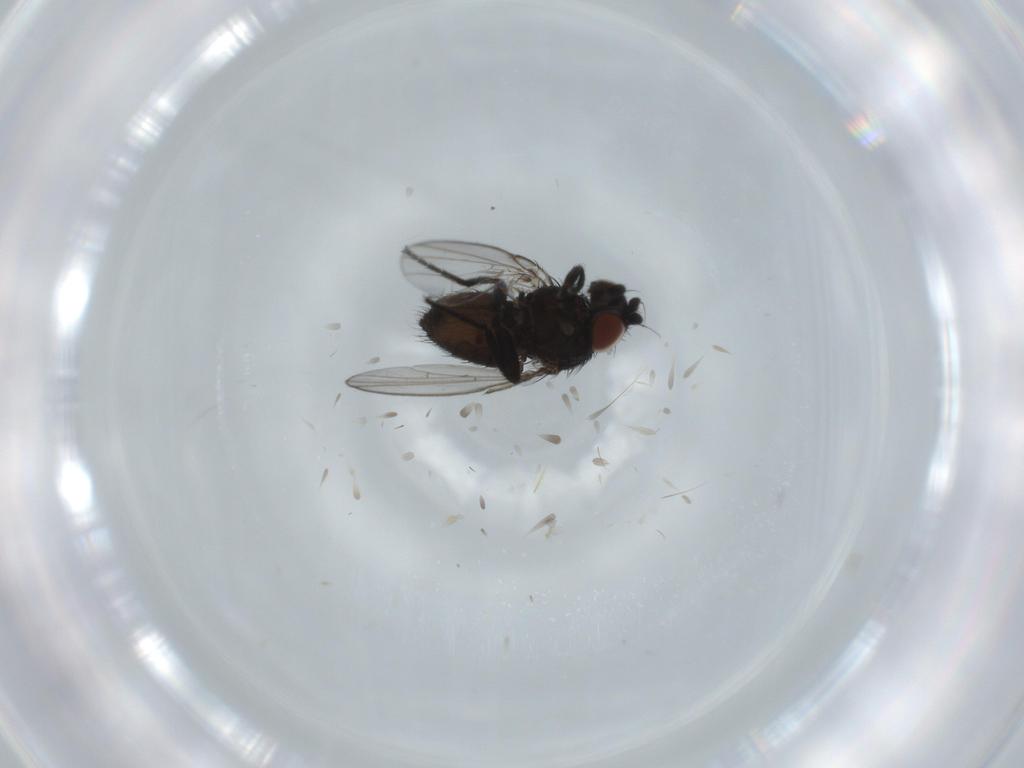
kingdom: Animalia
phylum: Arthropoda
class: Insecta
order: Diptera
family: Milichiidae
